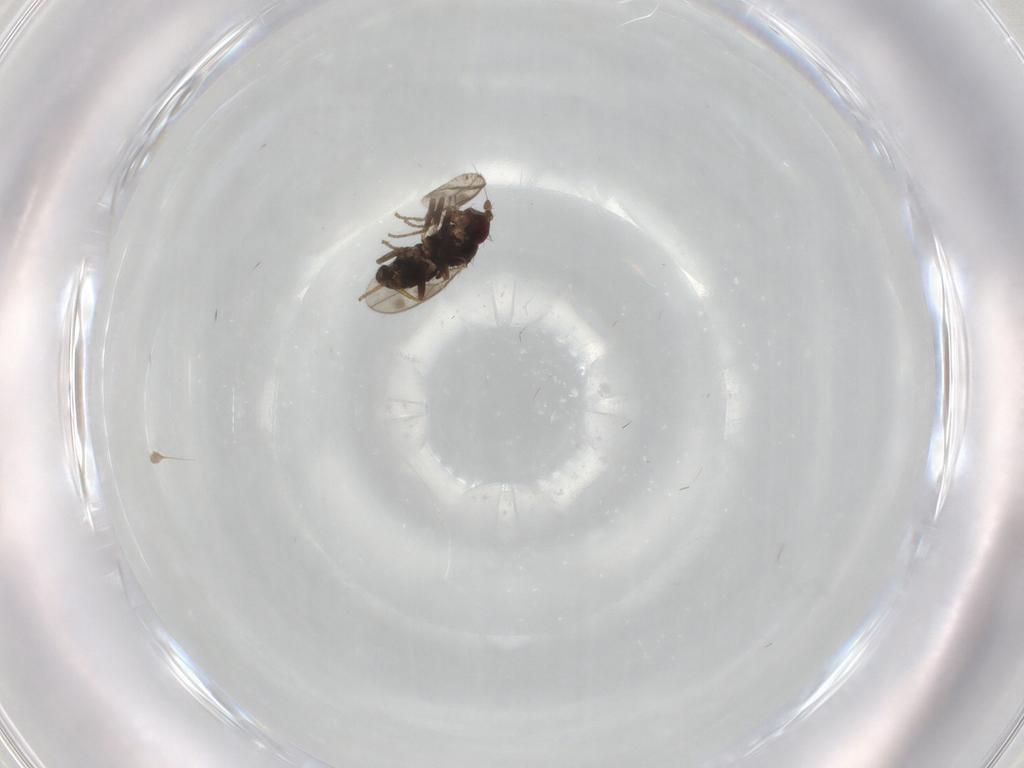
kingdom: Animalia
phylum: Arthropoda
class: Insecta
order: Diptera
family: Sphaeroceridae
